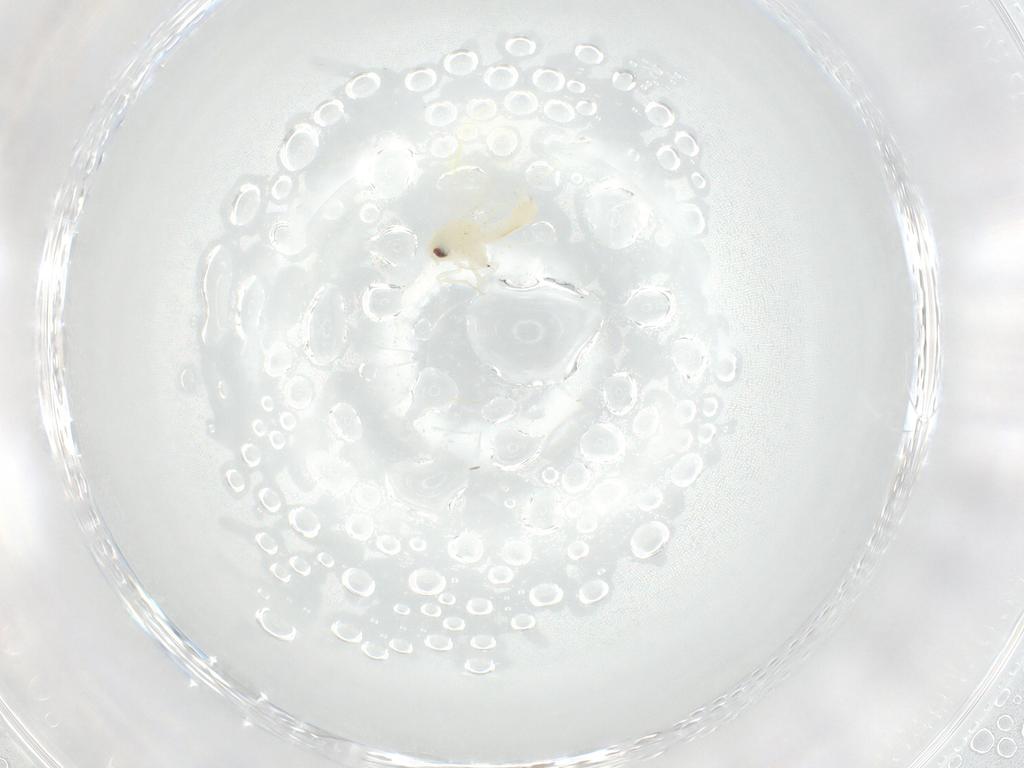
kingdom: Animalia
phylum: Arthropoda
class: Insecta
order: Hemiptera
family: Aleyrodidae
